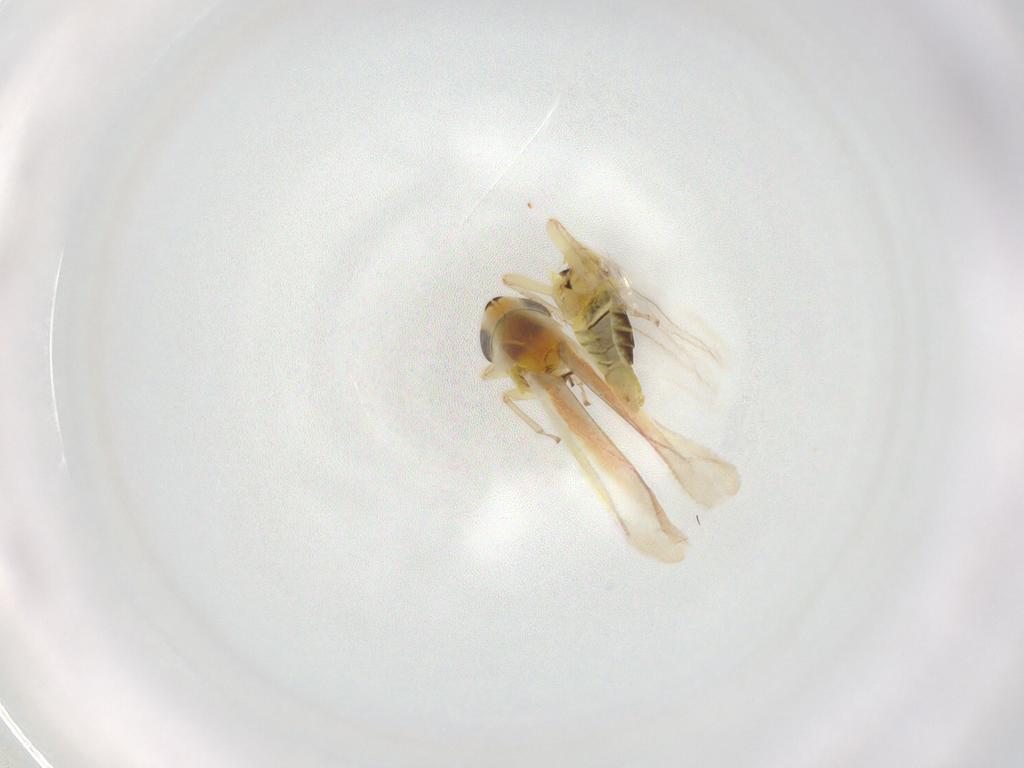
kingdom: Animalia
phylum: Arthropoda
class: Insecta
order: Hemiptera
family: Cicadellidae
